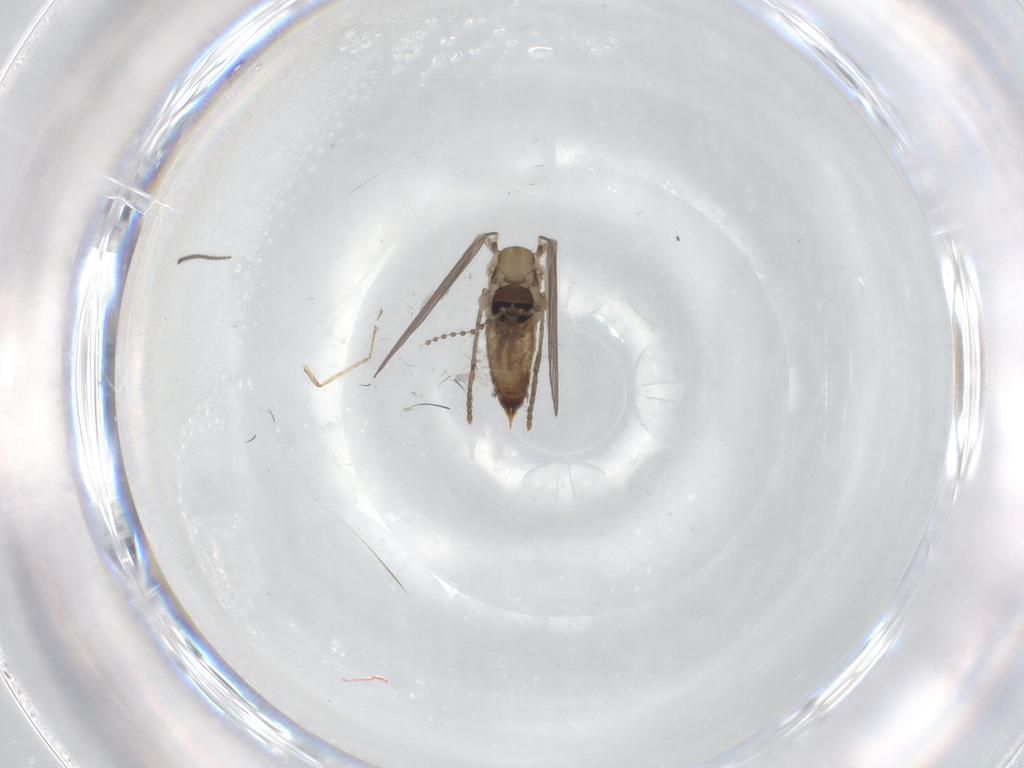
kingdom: Animalia
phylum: Arthropoda
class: Insecta
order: Diptera
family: Psychodidae
